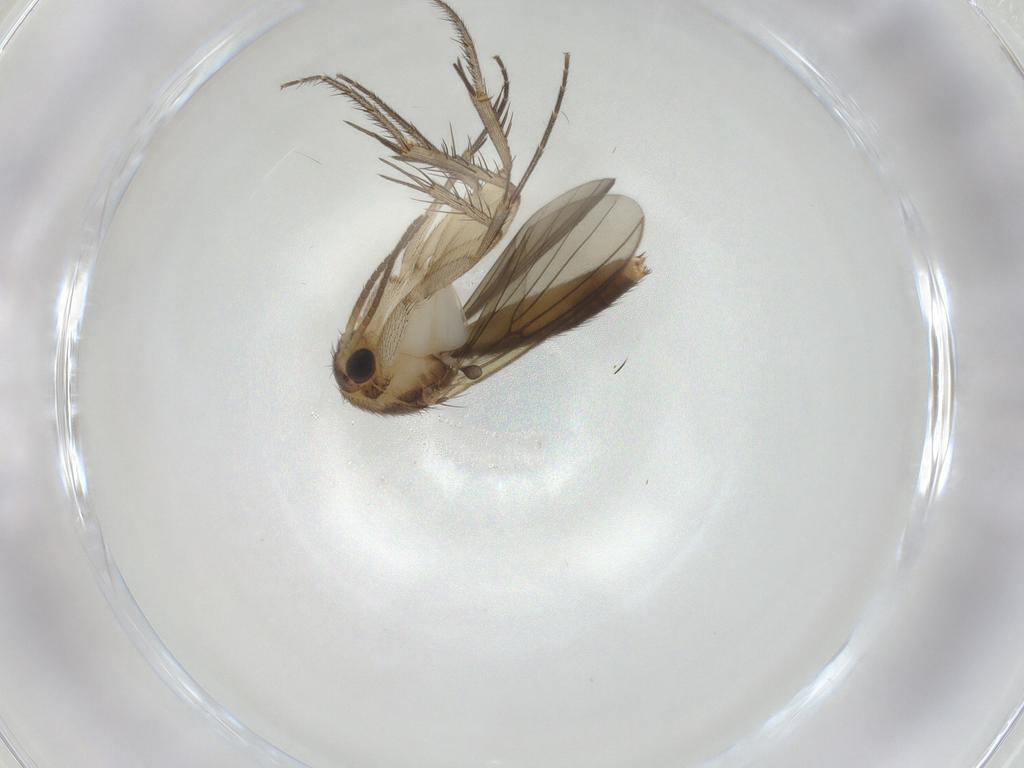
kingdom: Animalia
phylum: Arthropoda
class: Insecta
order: Diptera
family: Mycetophilidae
